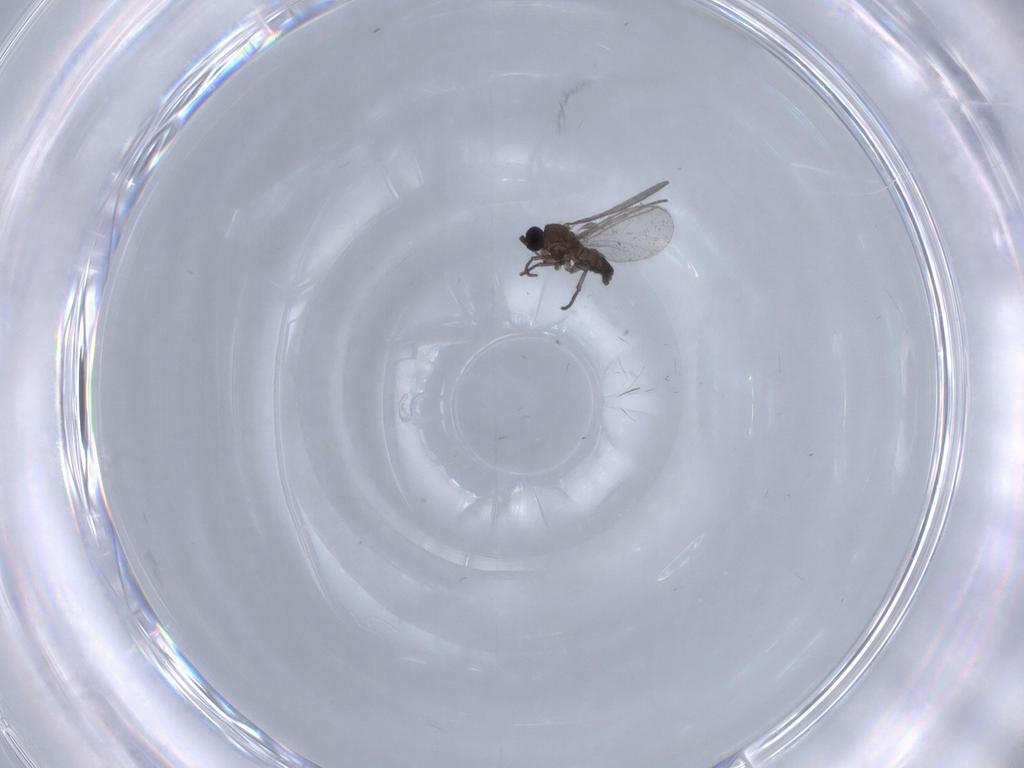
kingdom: Animalia
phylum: Arthropoda
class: Insecta
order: Diptera
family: Chironomidae
